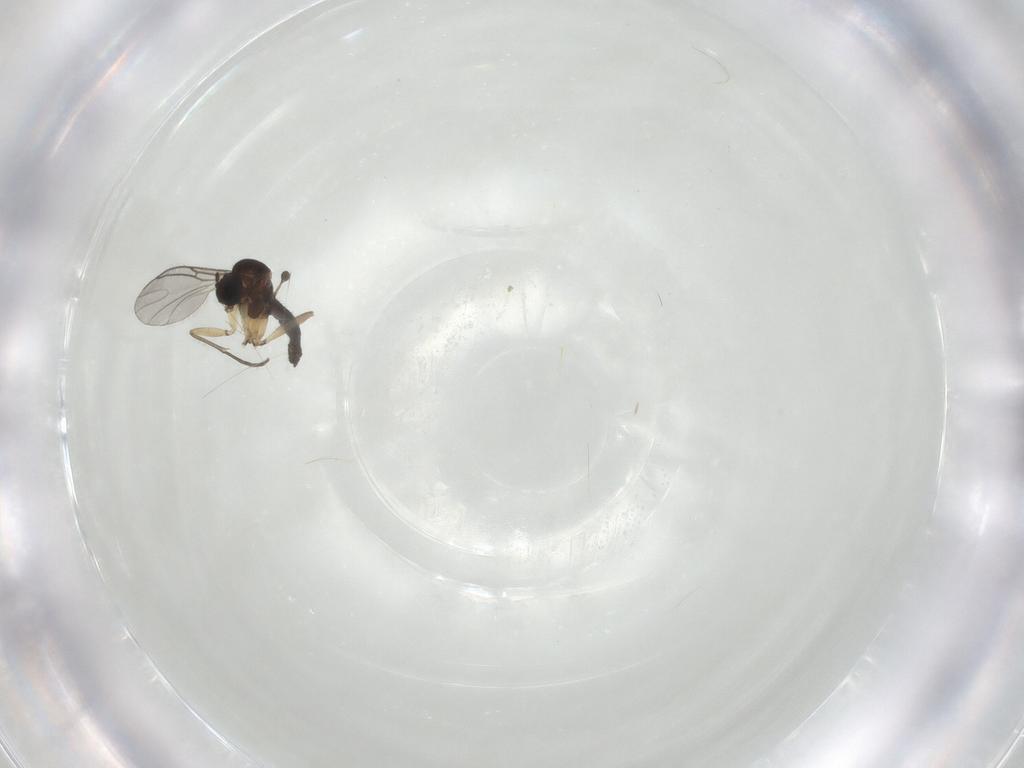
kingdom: Animalia
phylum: Arthropoda
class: Insecta
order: Diptera
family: Sciaridae
